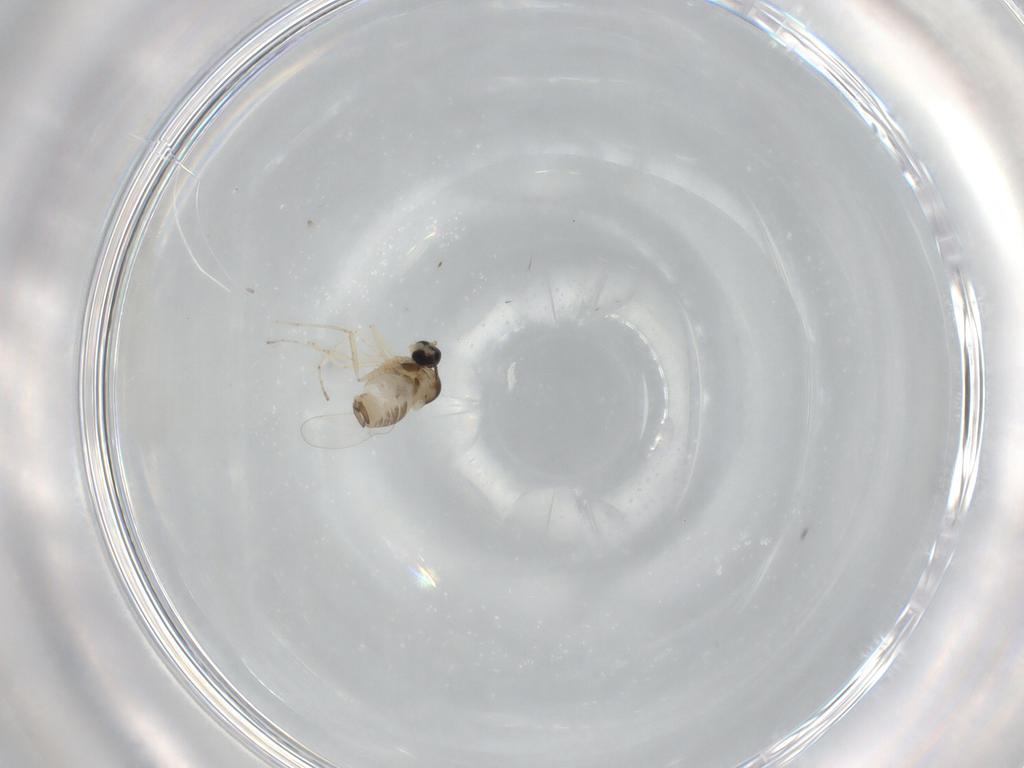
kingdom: Animalia
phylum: Arthropoda
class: Insecta
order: Diptera
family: Cecidomyiidae
